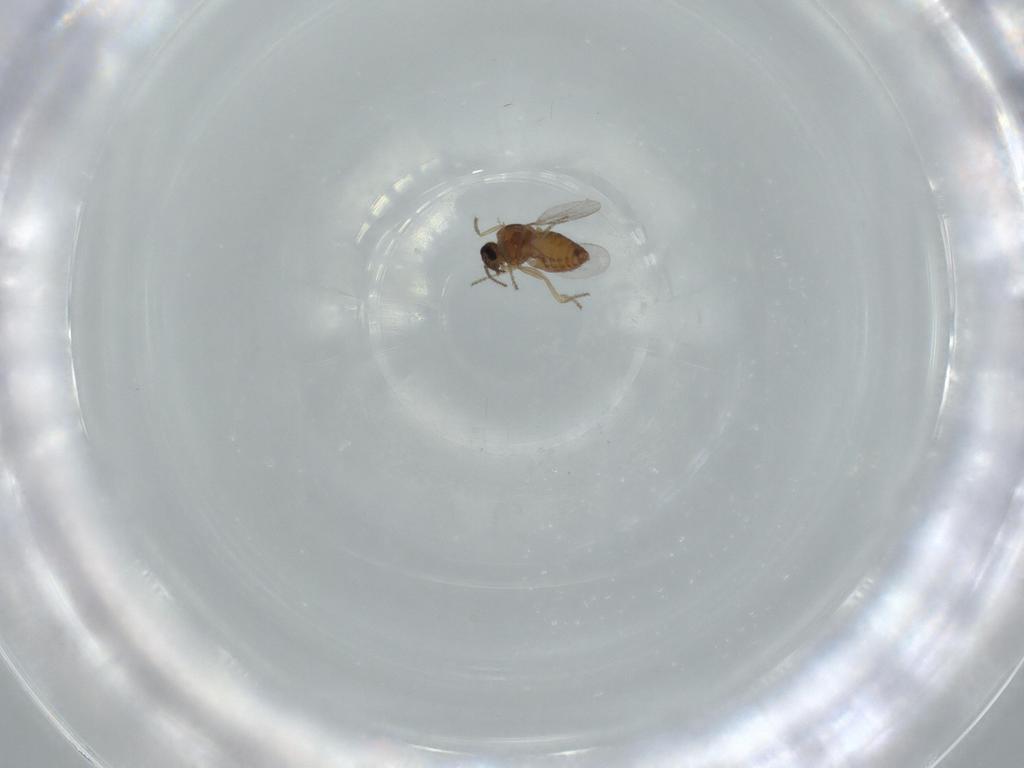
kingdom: Animalia
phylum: Arthropoda
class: Insecta
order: Diptera
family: Ceratopogonidae
